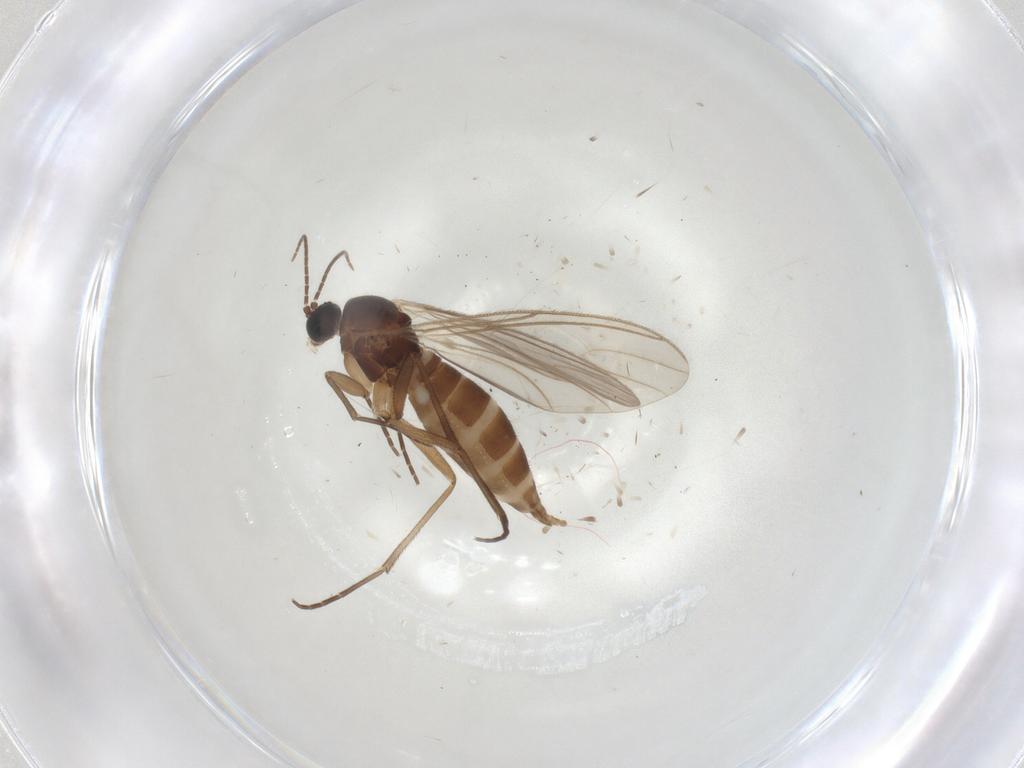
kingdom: Animalia
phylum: Arthropoda
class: Insecta
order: Diptera
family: Sciaridae
